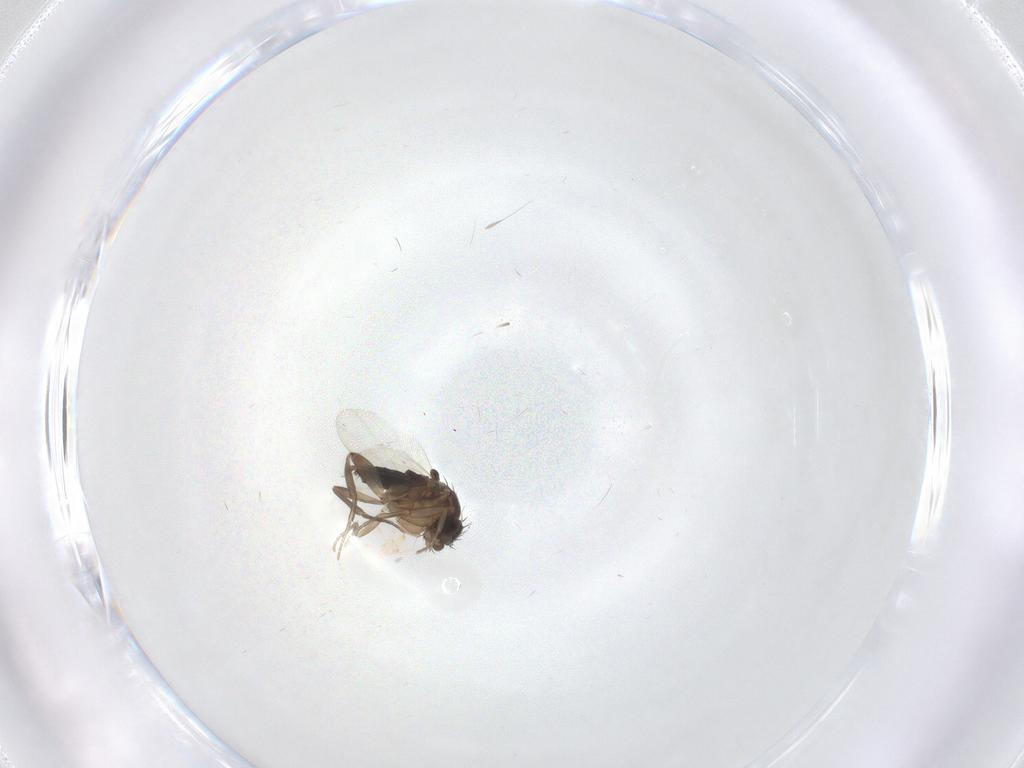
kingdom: Animalia
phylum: Arthropoda
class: Insecta
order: Diptera
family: Phoridae
